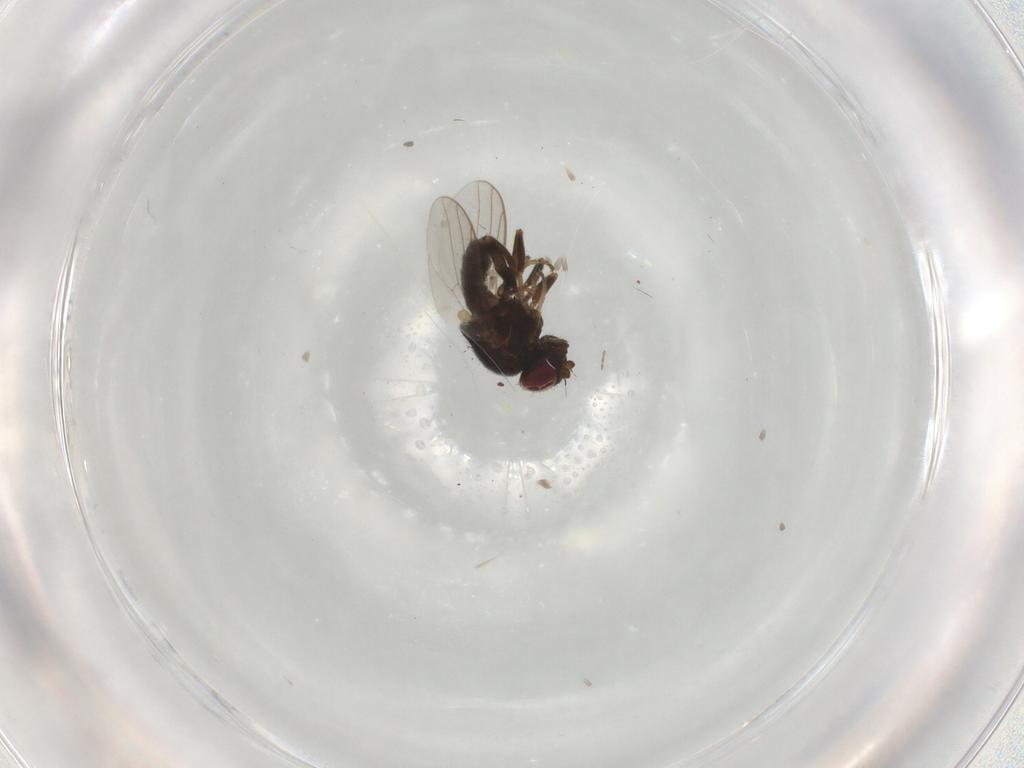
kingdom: Animalia
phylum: Arthropoda
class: Insecta
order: Diptera
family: Chloropidae
